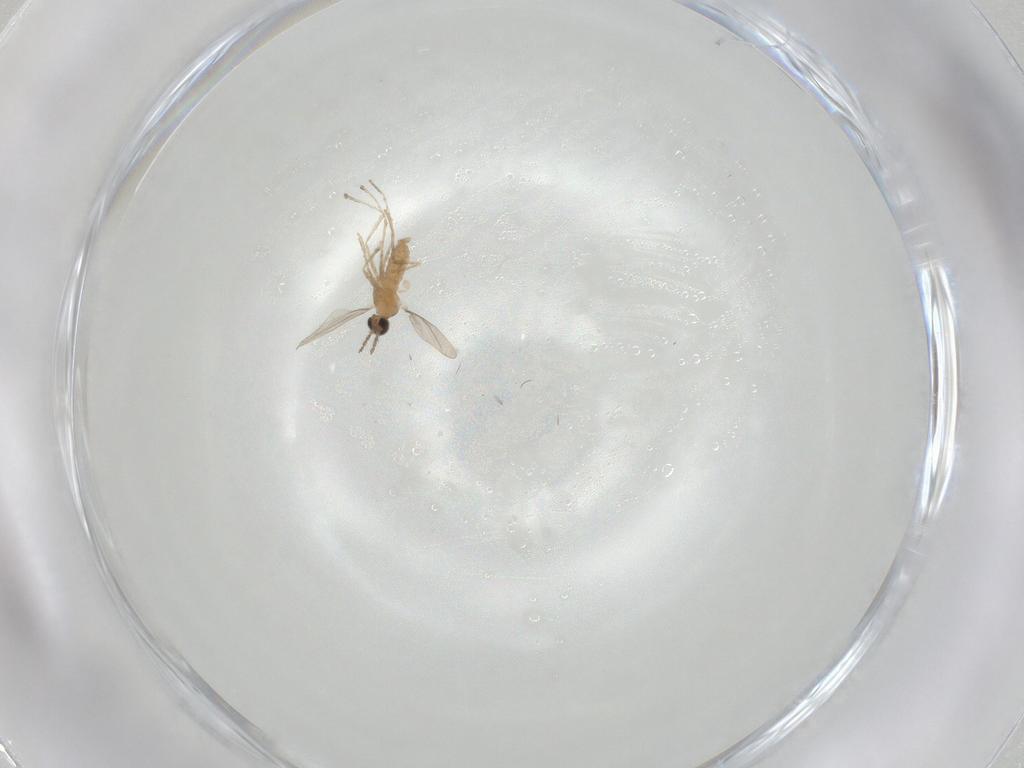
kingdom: Animalia
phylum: Arthropoda
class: Insecta
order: Diptera
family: Cecidomyiidae
